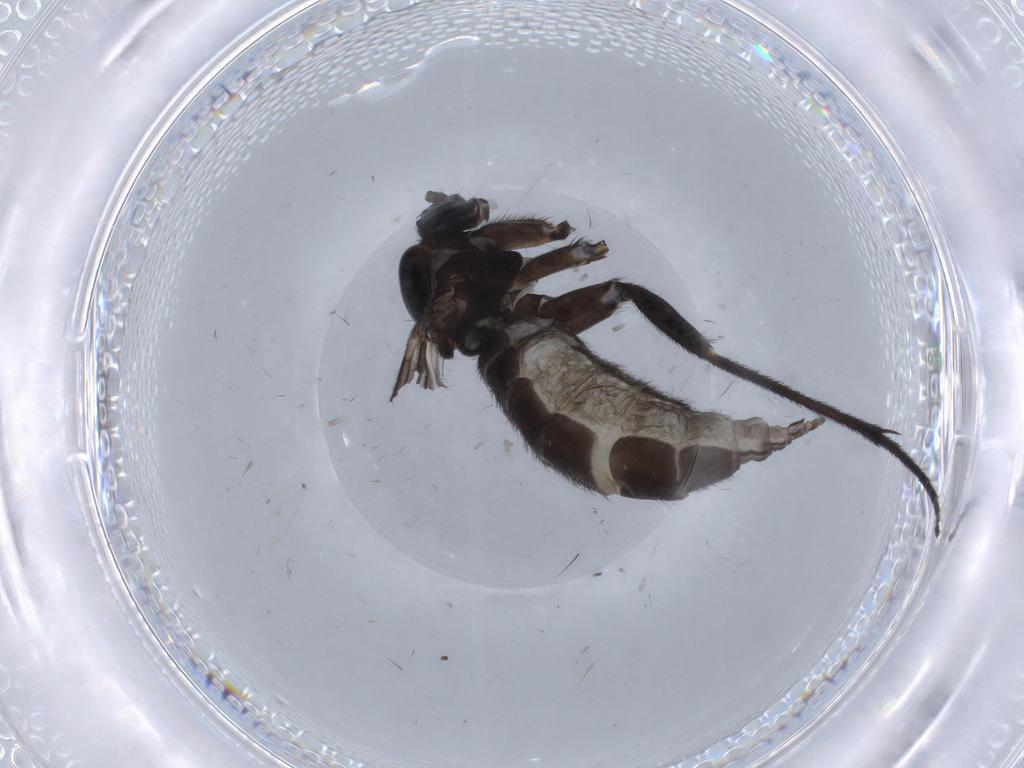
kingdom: Animalia
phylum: Arthropoda
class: Insecta
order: Diptera
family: Sciaridae
